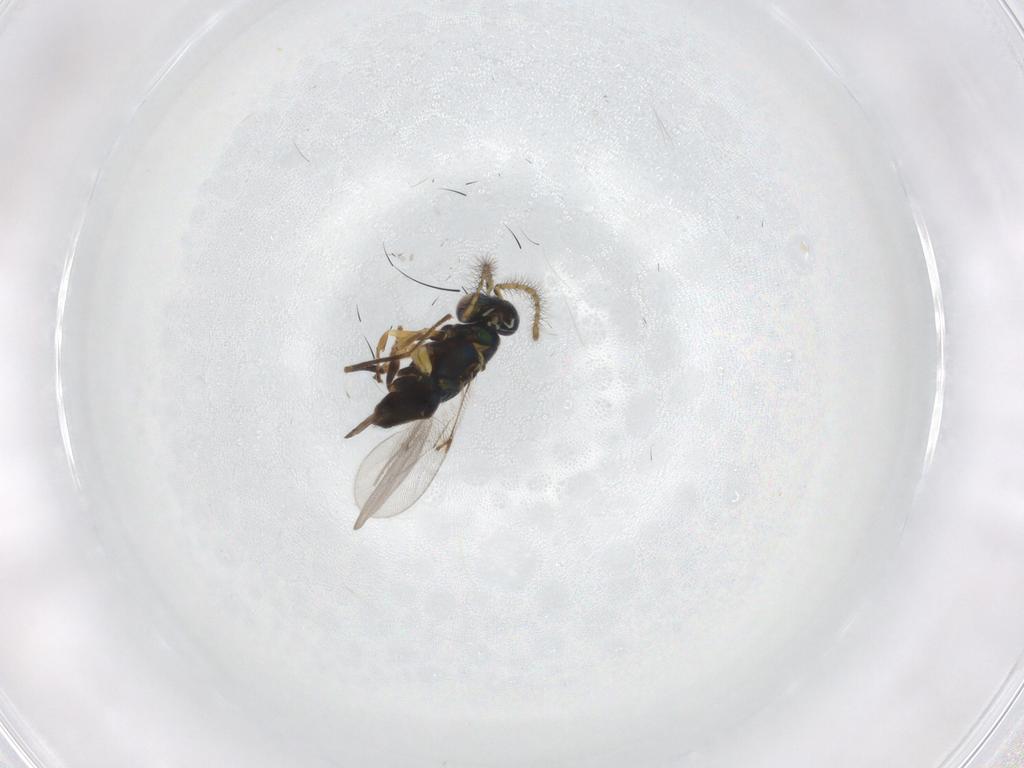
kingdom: Animalia
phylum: Arthropoda
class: Insecta
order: Hymenoptera
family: Encyrtidae
